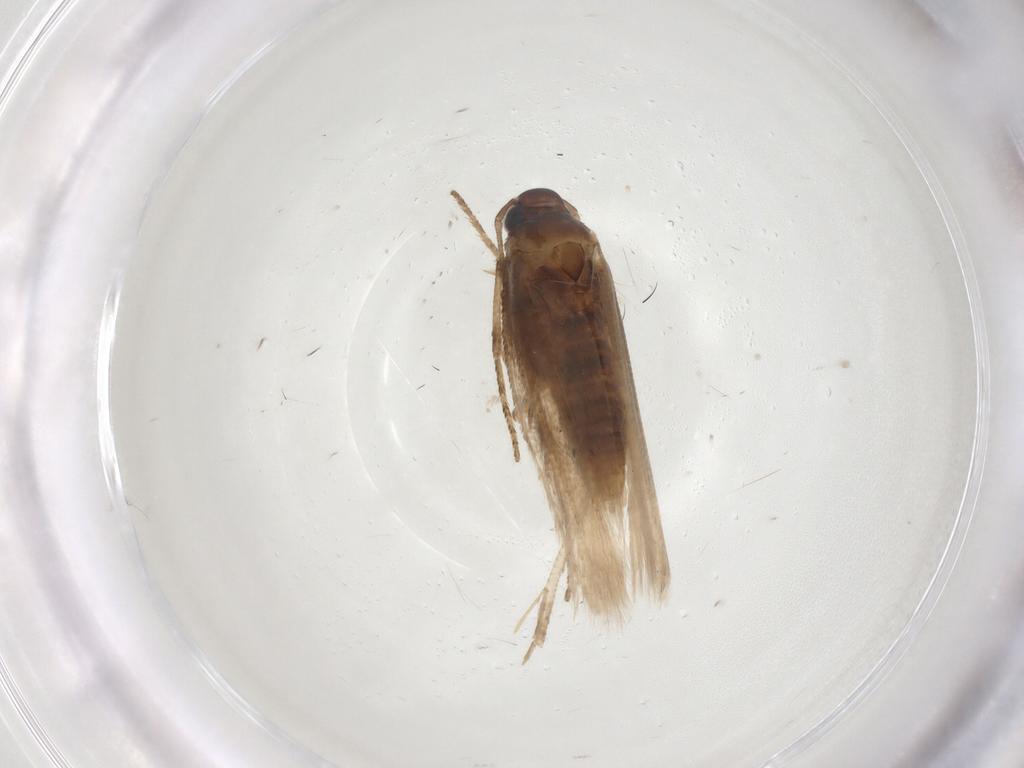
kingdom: Animalia
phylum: Arthropoda
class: Insecta
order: Lepidoptera
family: Gelechiidae
